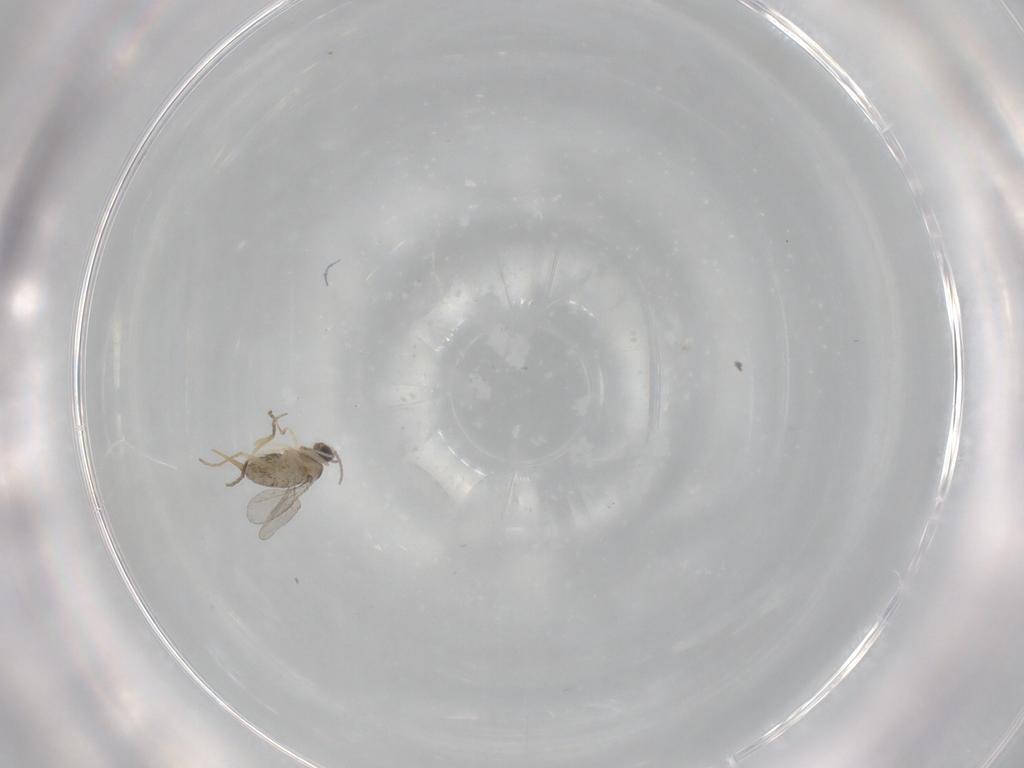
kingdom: Animalia
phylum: Arthropoda
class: Insecta
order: Diptera
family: Cecidomyiidae
